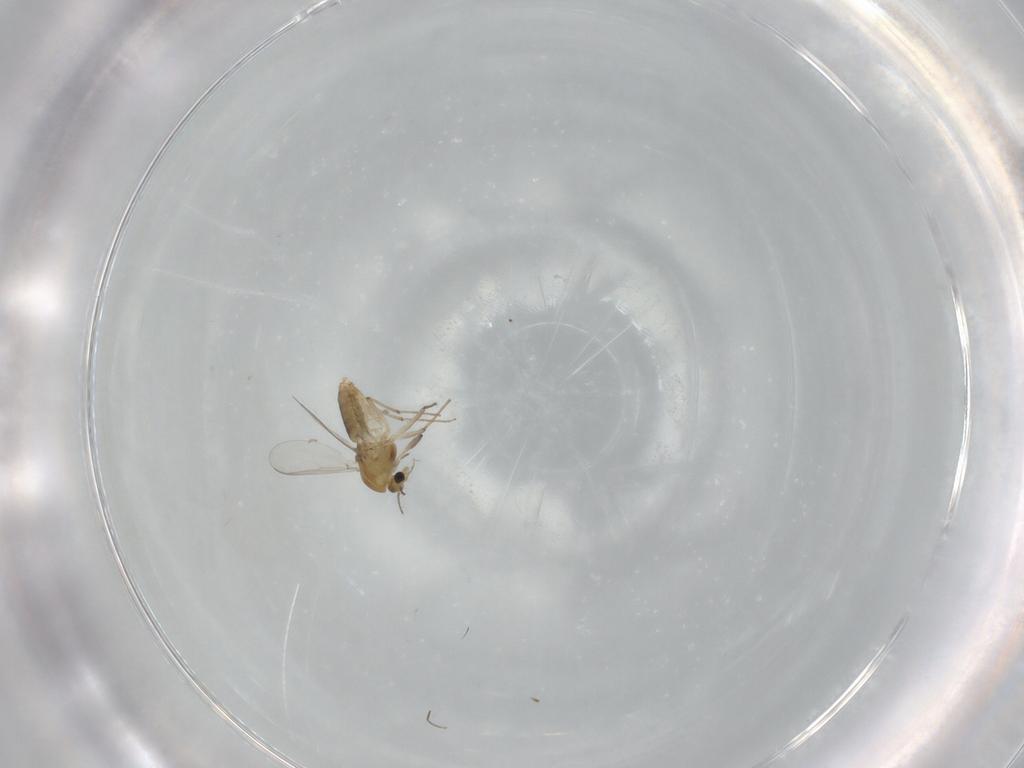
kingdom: Animalia
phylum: Arthropoda
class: Insecta
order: Diptera
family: Chironomidae
